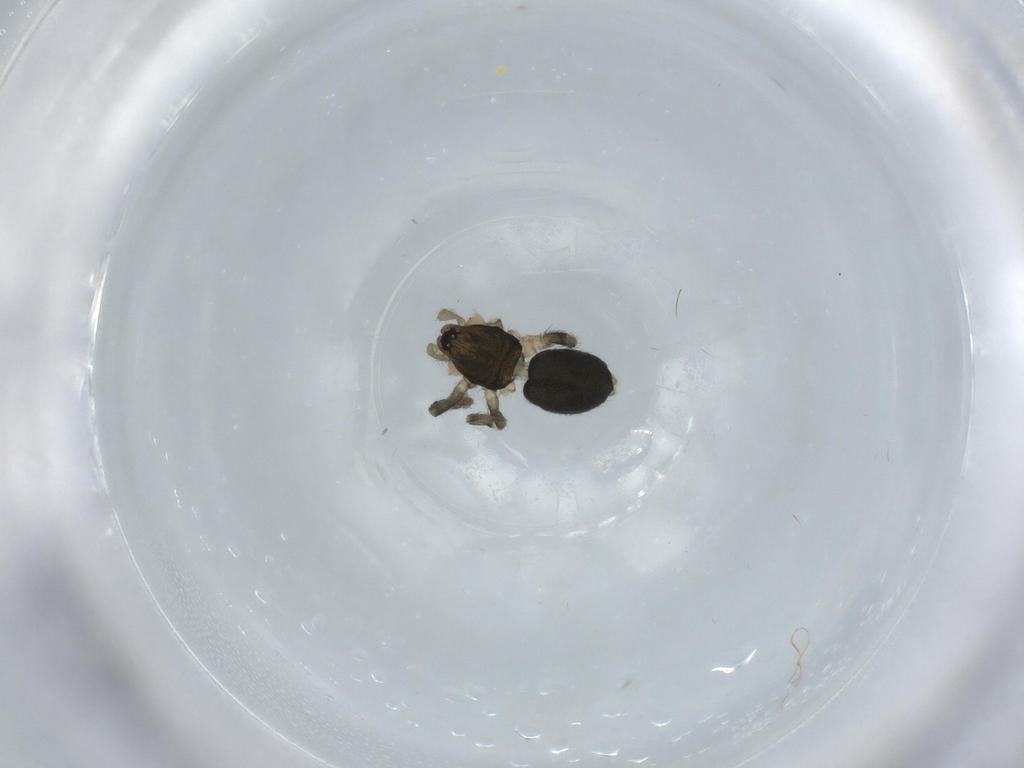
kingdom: Animalia
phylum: Arthropoda
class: Arachnida
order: Araneae
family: Gnaphosidae
